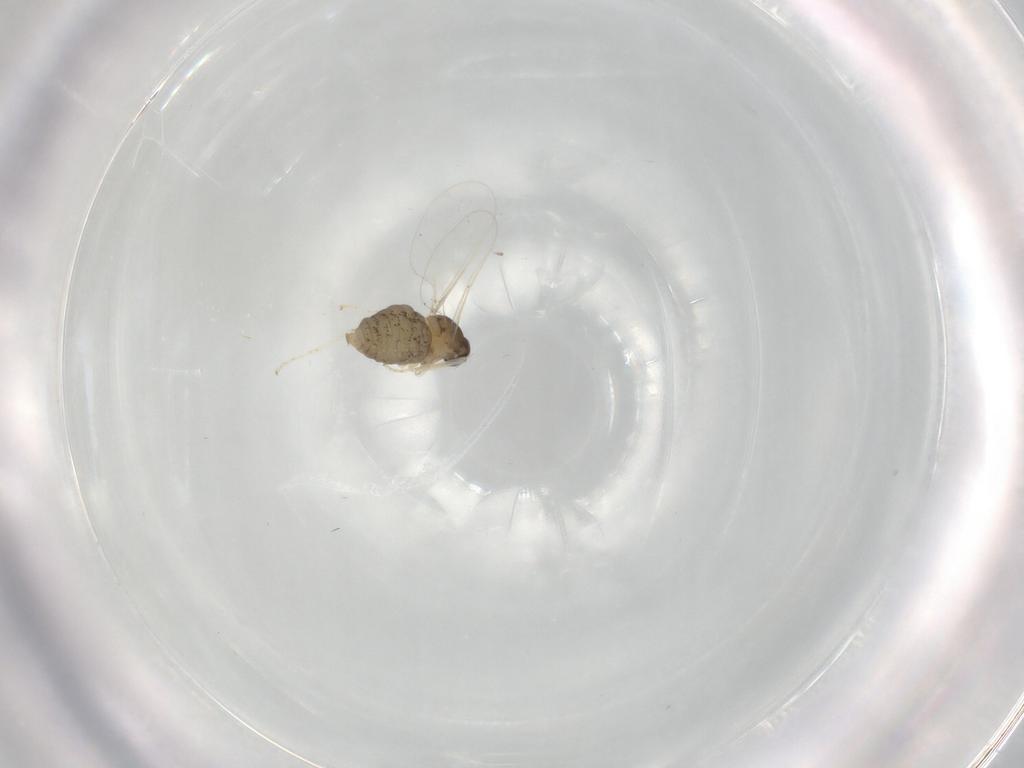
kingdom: Animalia
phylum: Arthropoda
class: Insecta
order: Diptera
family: Cecidomyiidae
